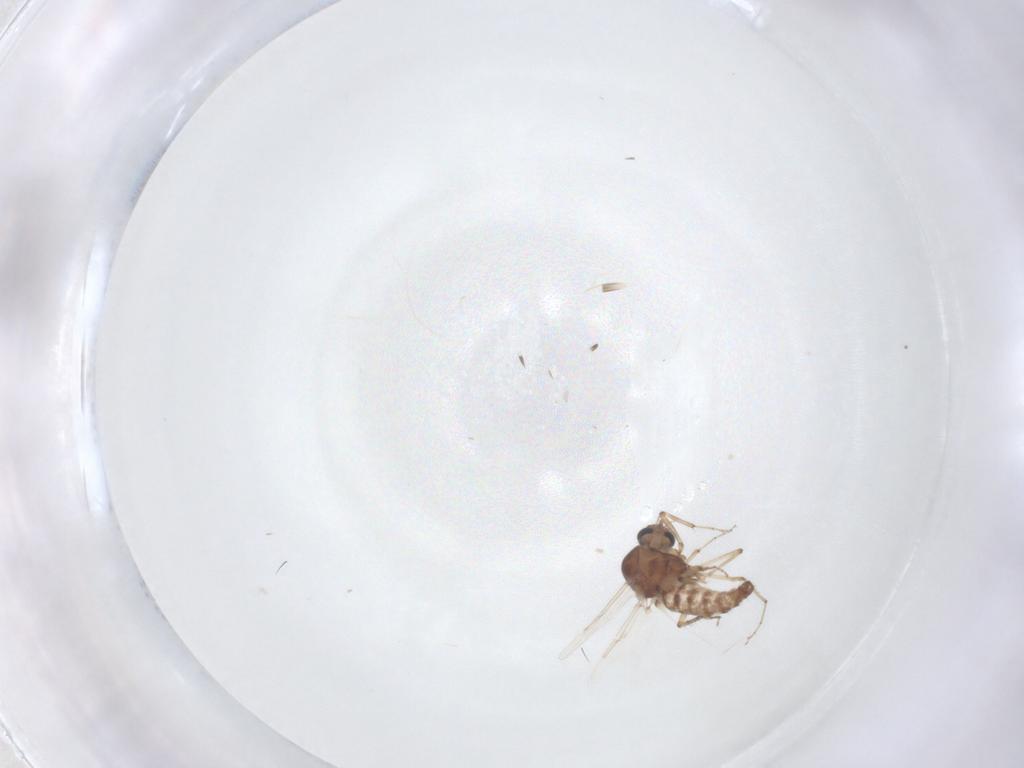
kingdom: Animalia
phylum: Arthropoda
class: Insecta
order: Diptera
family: Ceratopogonidae
